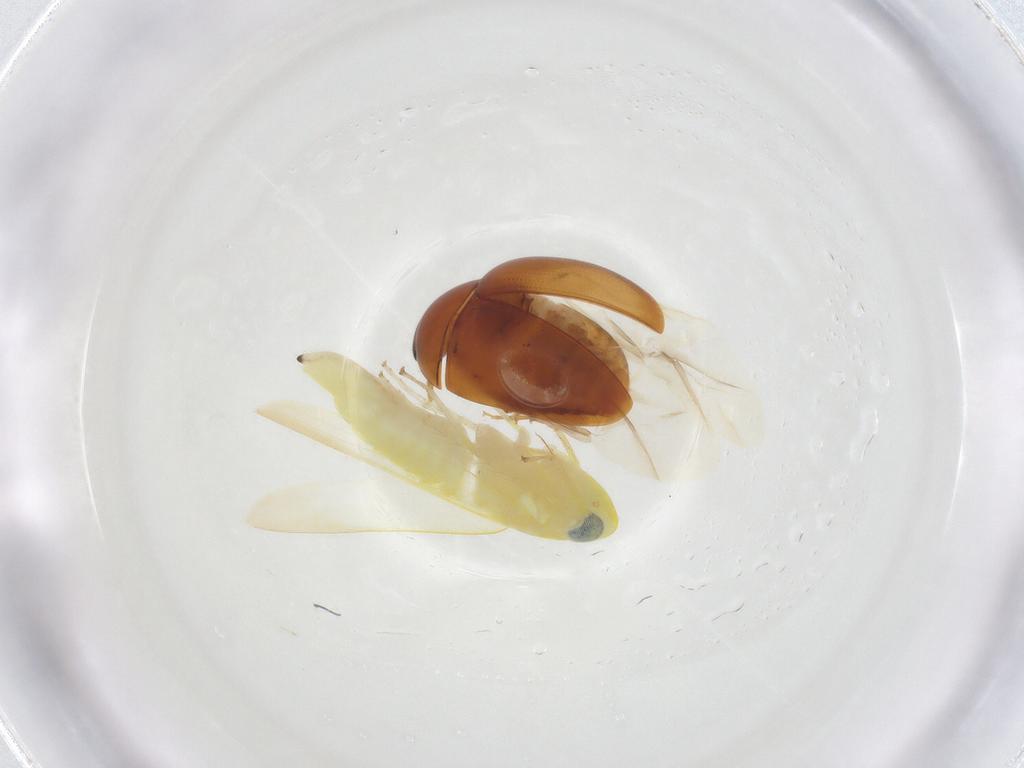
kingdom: Animalia
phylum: Arthropoda
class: Insecta
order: Coleoptera
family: Phalacridae
